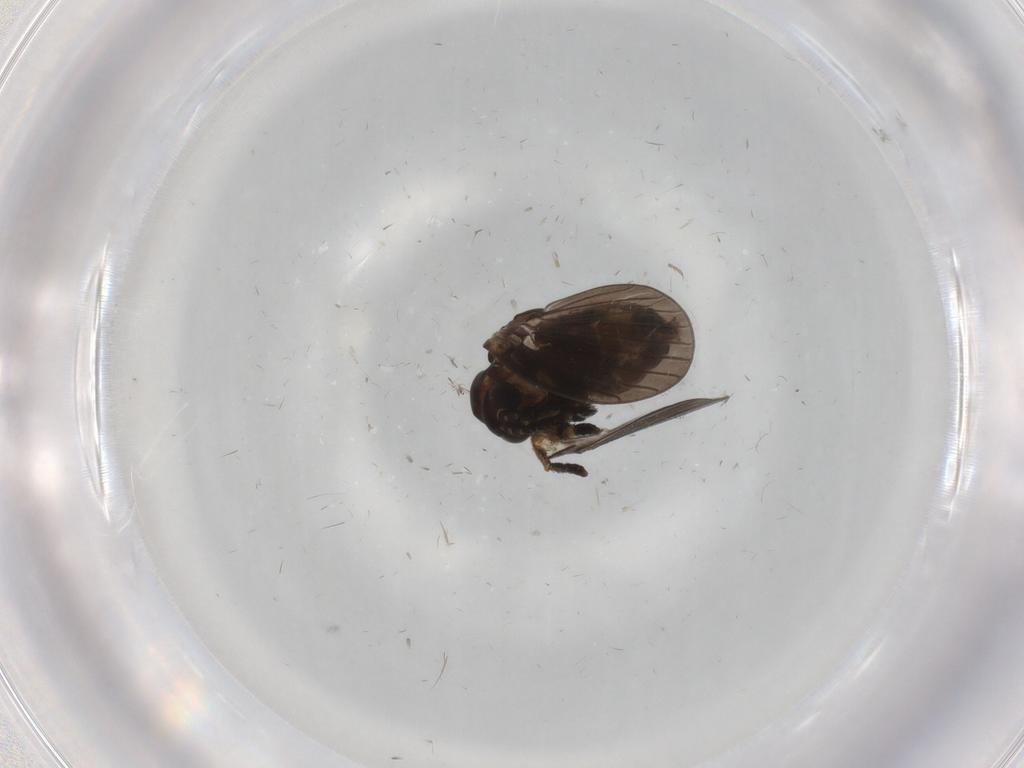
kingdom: Animalia
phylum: Arthropoda
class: Insecta
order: Diptera
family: Cecidomyiidae
